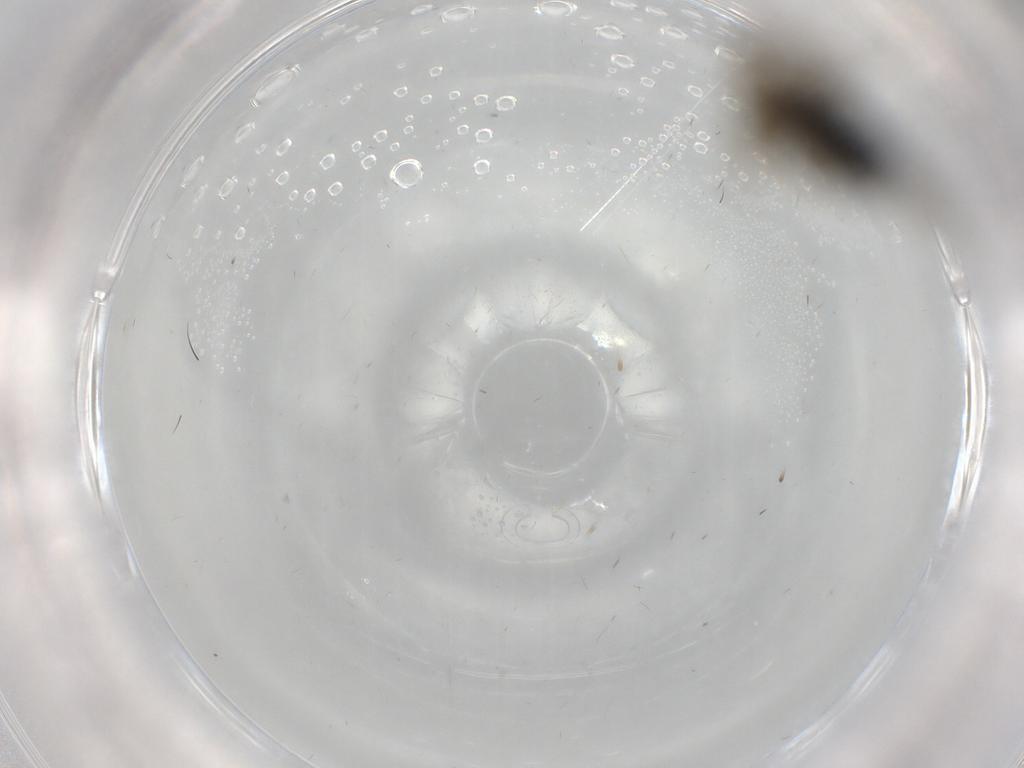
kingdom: Animalia
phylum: Arthropoda
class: Insecta
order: Diptera
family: Dolichopodidae
